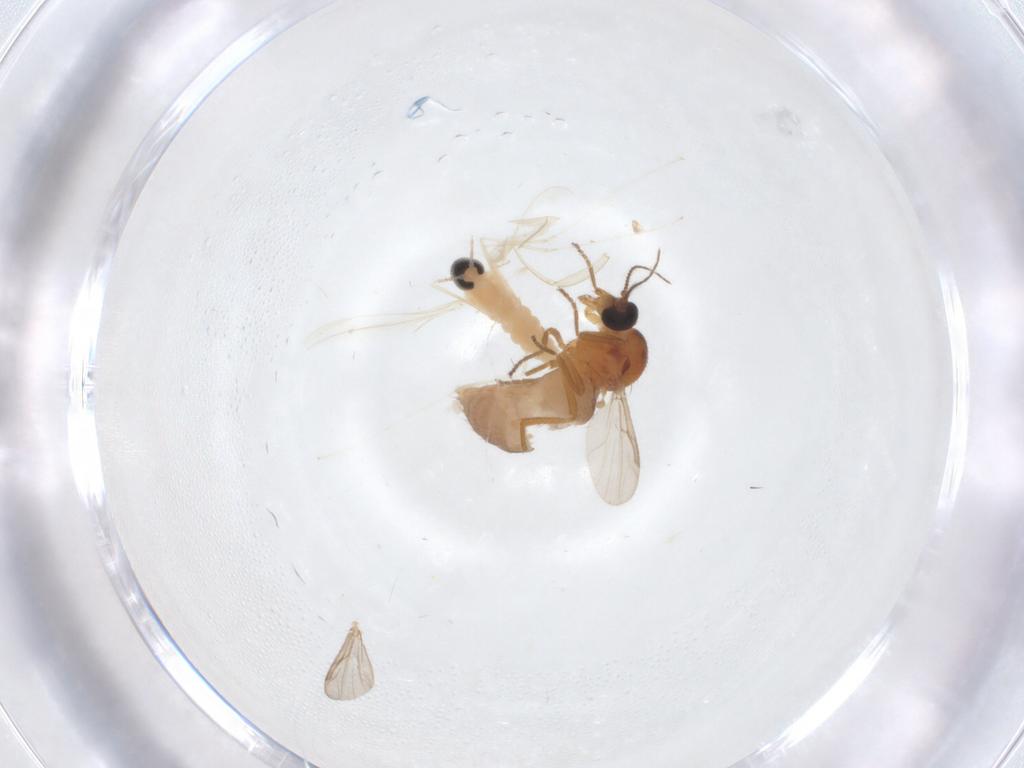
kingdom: Animalia
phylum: Arthropoda
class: Insecta
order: Diptera
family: Ceratopogonidae
